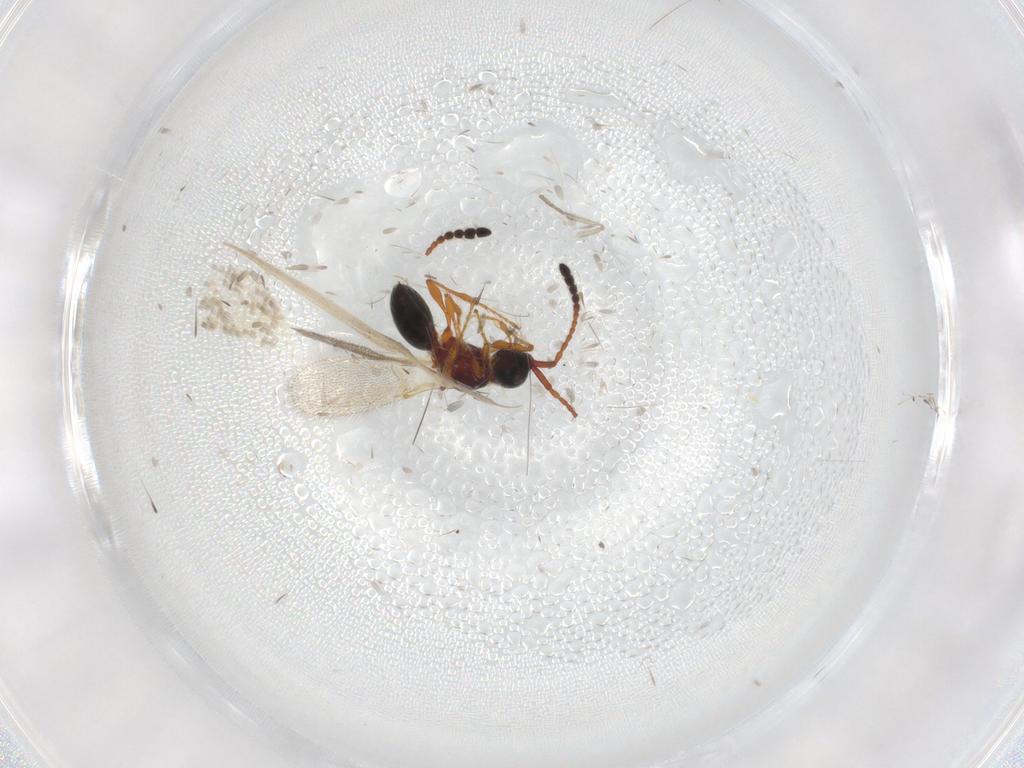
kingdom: Animalia
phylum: Arthropoda
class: Insecta
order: Hymenoptera
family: Diapriidae
